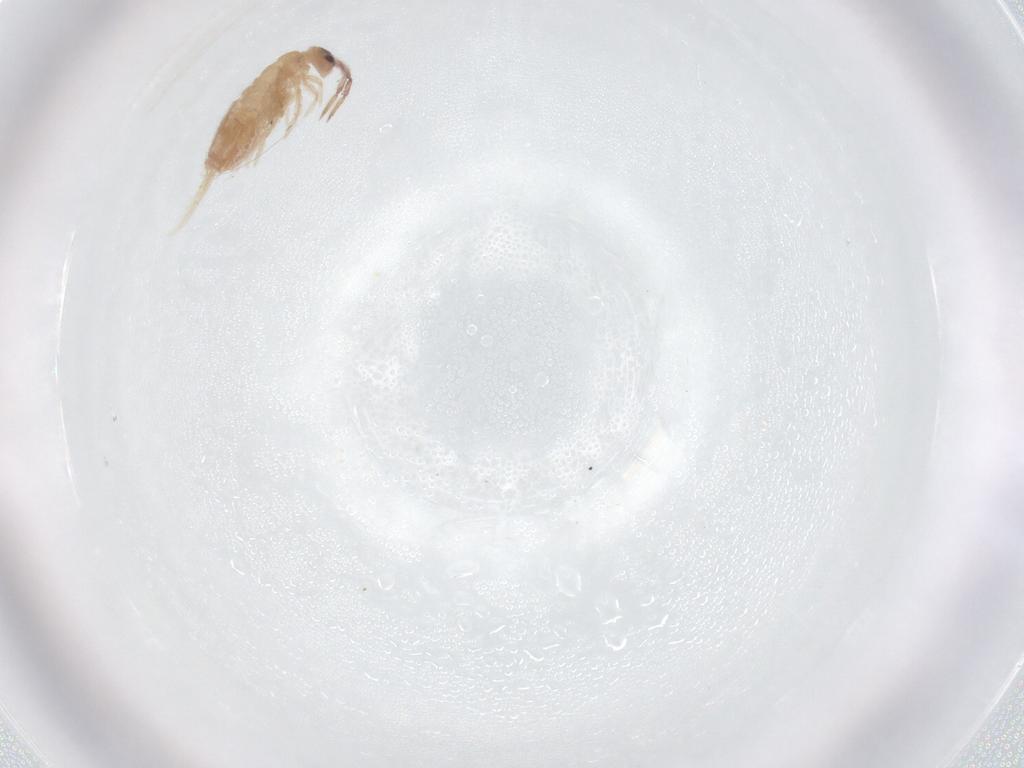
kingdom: Animalia
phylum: Arthropoda
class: Collembola
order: Entomobryomorpha
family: Entomobryidae
